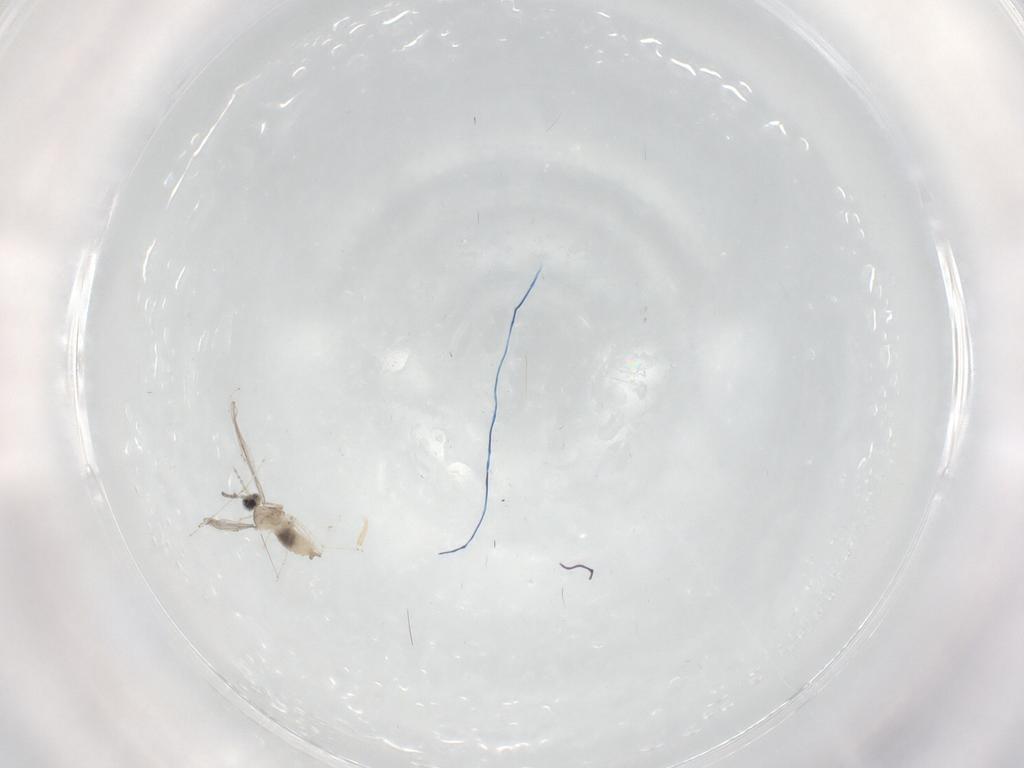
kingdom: Animalia
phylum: Arthropoda
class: Insecta
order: Diptera
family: Cecidomyiidae
